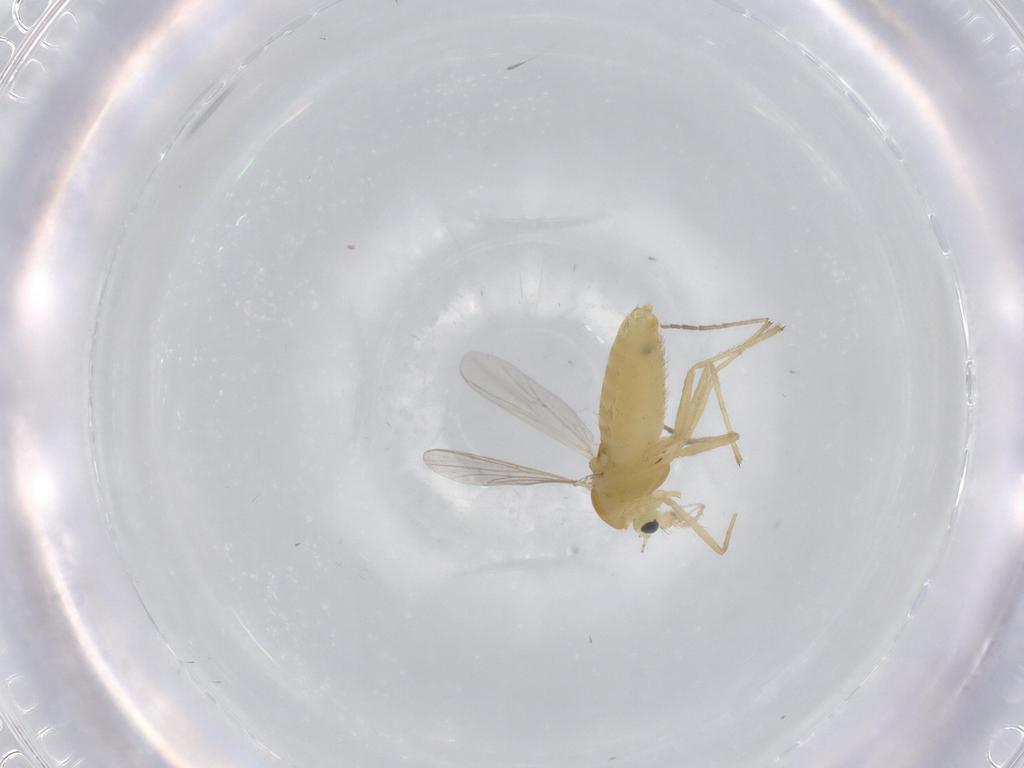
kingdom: Animalia
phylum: Arthropoda
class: Insecta
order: Diptera
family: Chironomidae
